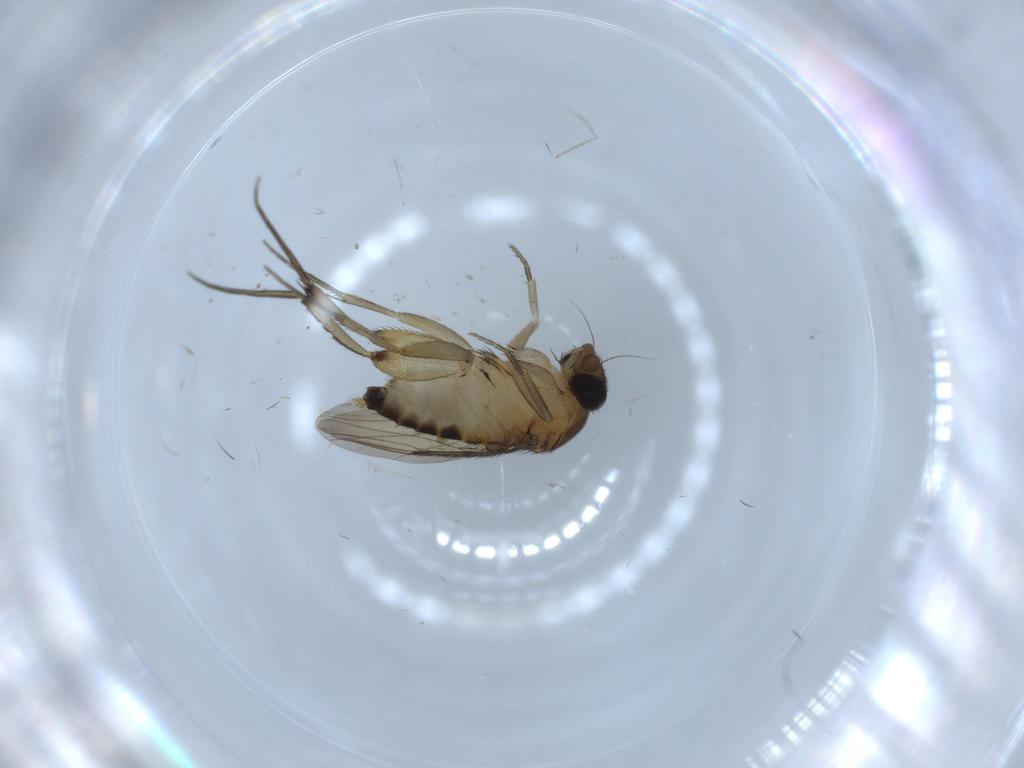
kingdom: Animalia
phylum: Arthropoda
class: Insecta
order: Diptera
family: Phoridae
